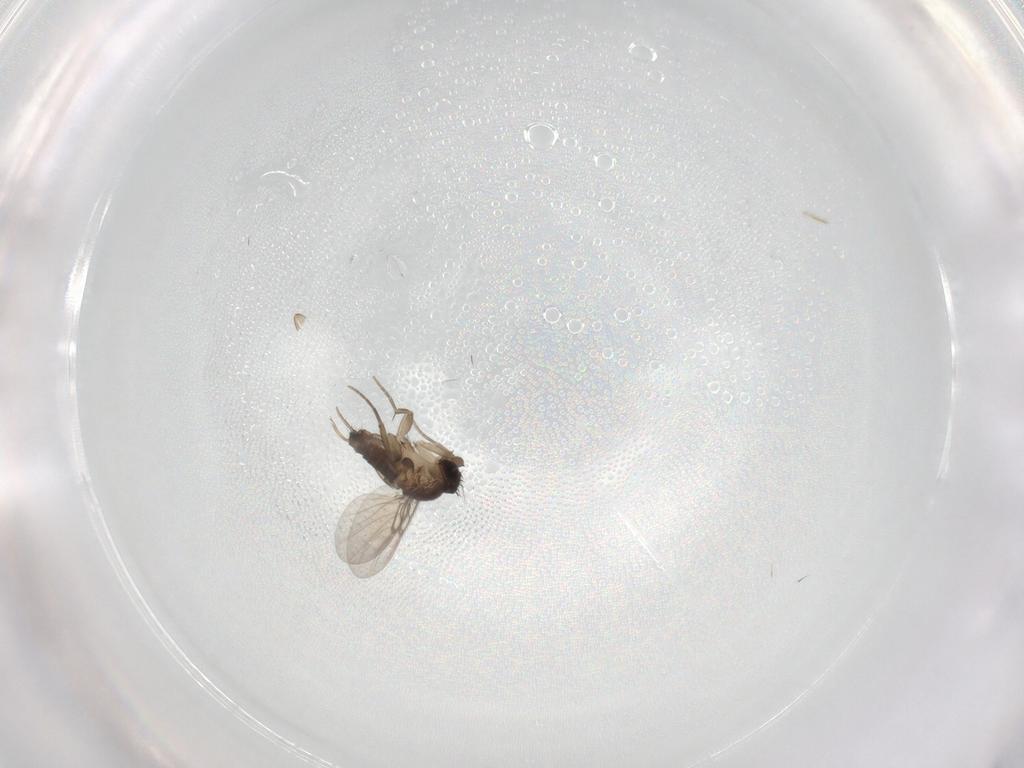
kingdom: Animalia
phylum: Arthropoda
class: Insecta
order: Diptera
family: Phoridae
